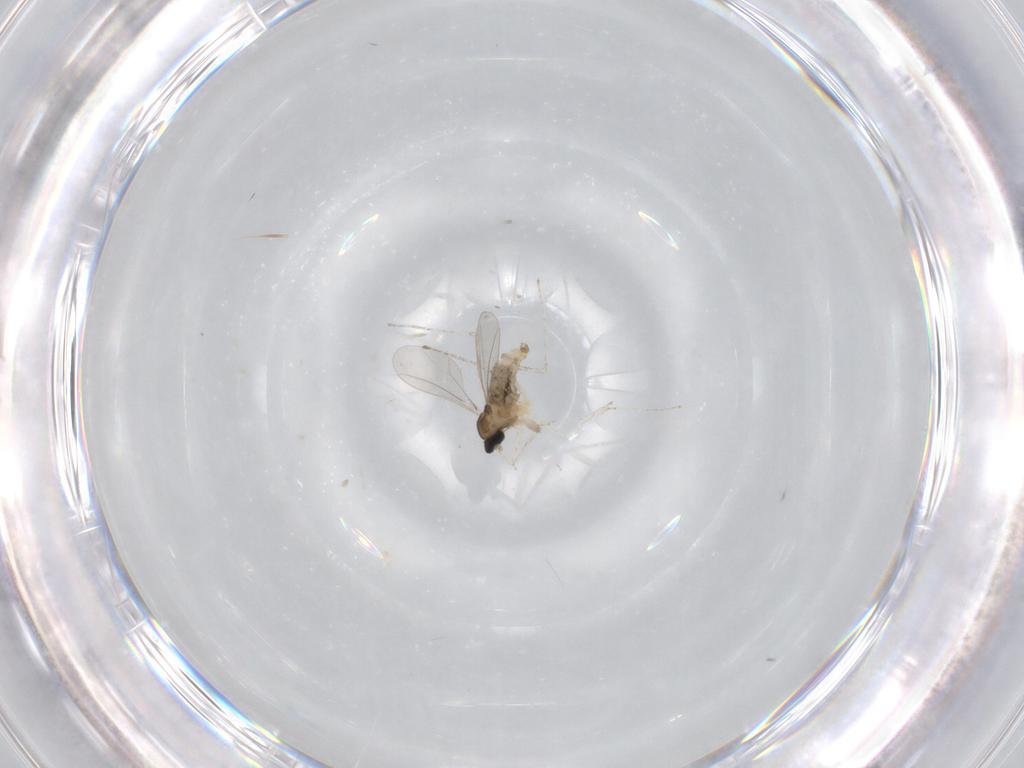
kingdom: Animalia
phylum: Arthropoda
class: Insecta
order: Diptera
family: Mycetophilidae
